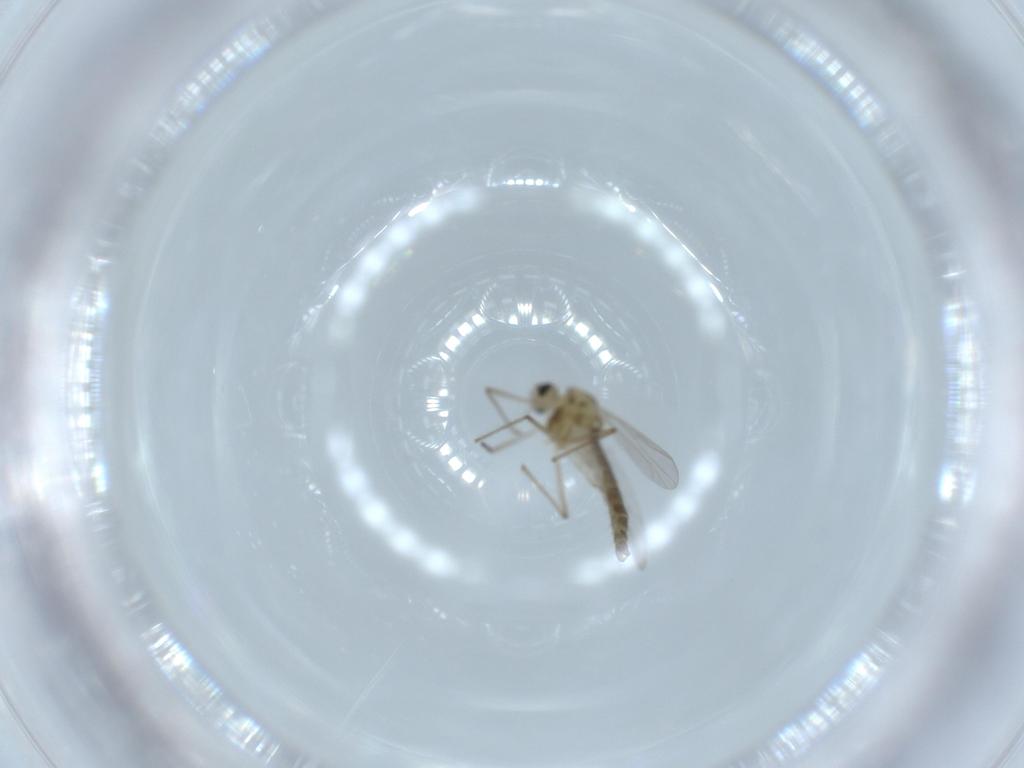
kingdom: Animalia
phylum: Arthropoda
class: Insecta
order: Diptera
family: Chironomidae
